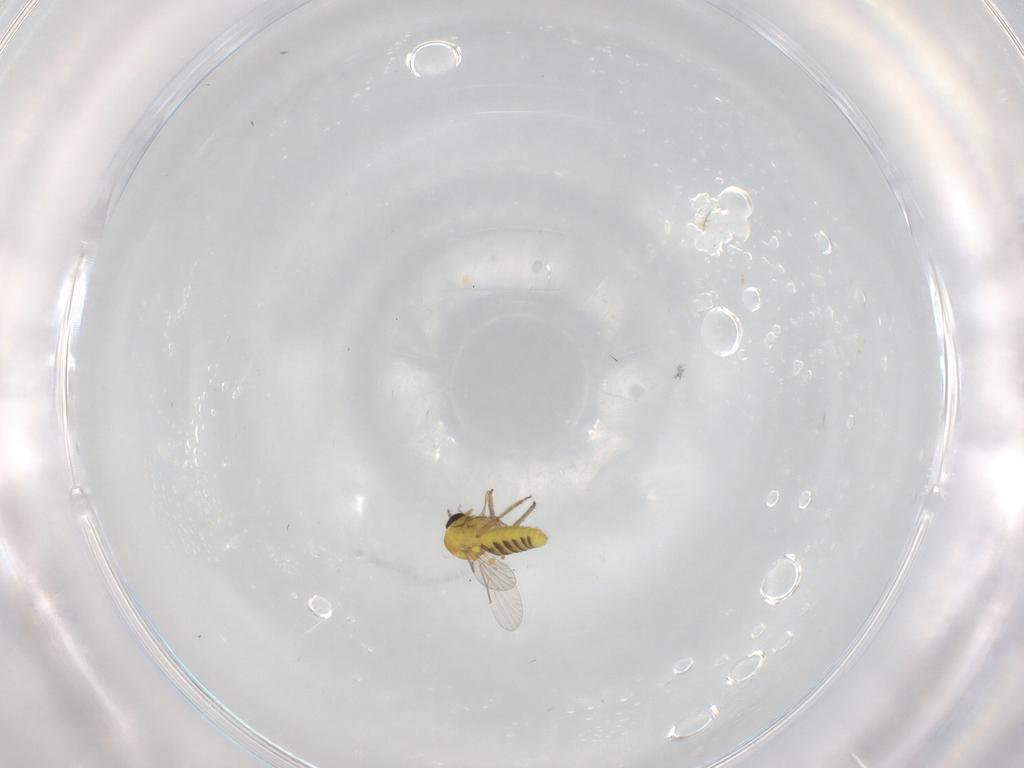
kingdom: Animalia
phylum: Arthropoda
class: Insecta
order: Diptera
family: Ceratopogonidae
